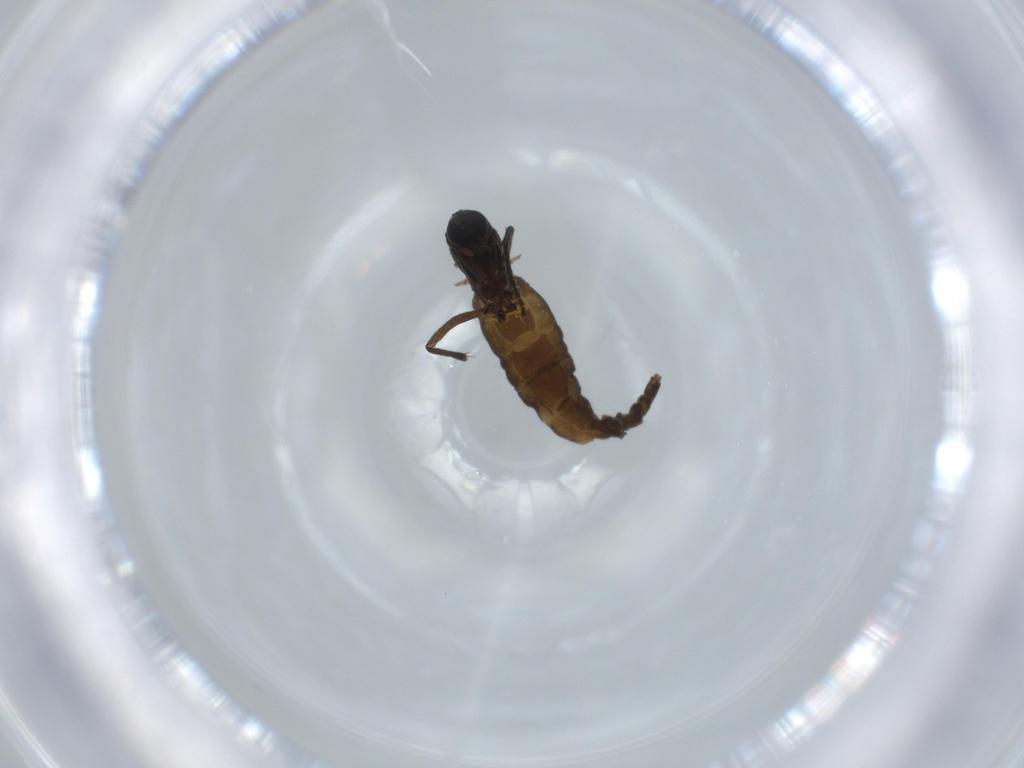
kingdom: Animalia
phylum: Arthropoda
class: Insecta
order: Diptera
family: Sciaridae
